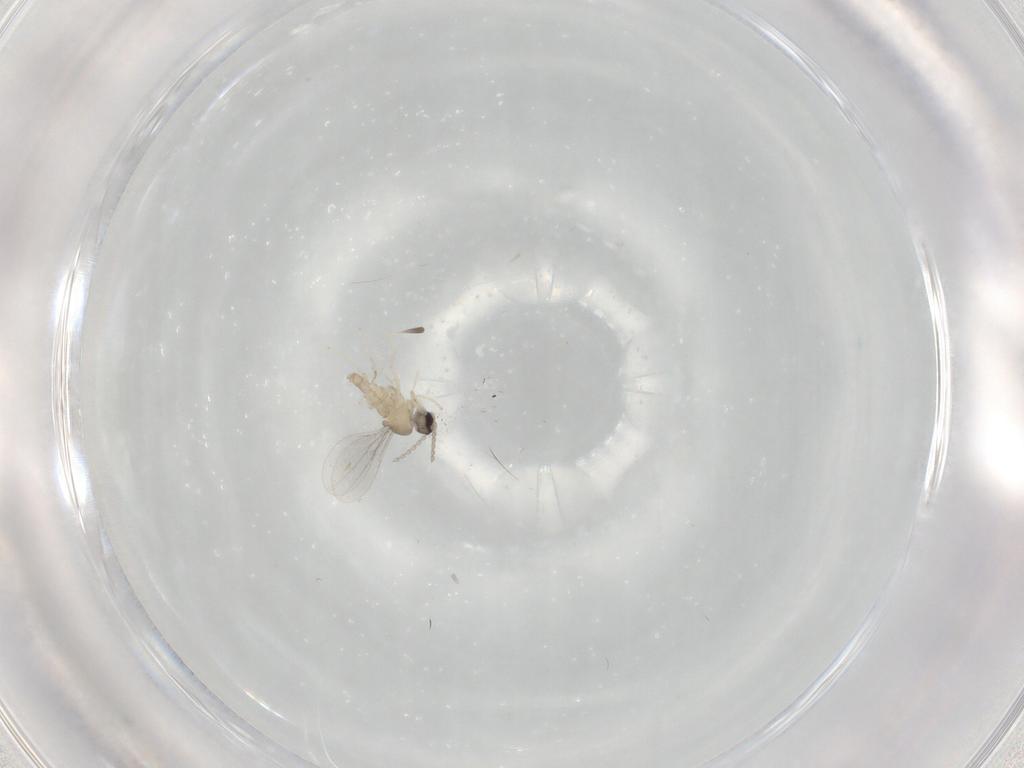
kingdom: Animalia
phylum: Arthropoda
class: Insecta
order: Diptera
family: Cecidomyiidae
